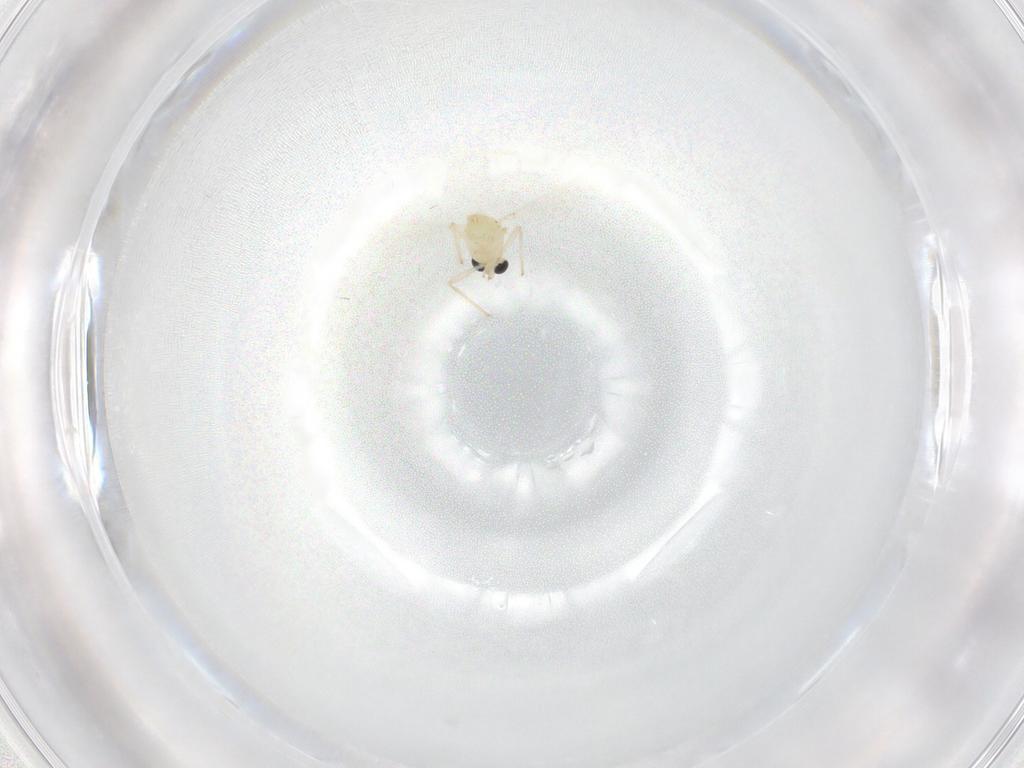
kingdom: Animalia
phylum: Arthropoda
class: Insecta
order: Diptera
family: Chironomidae
